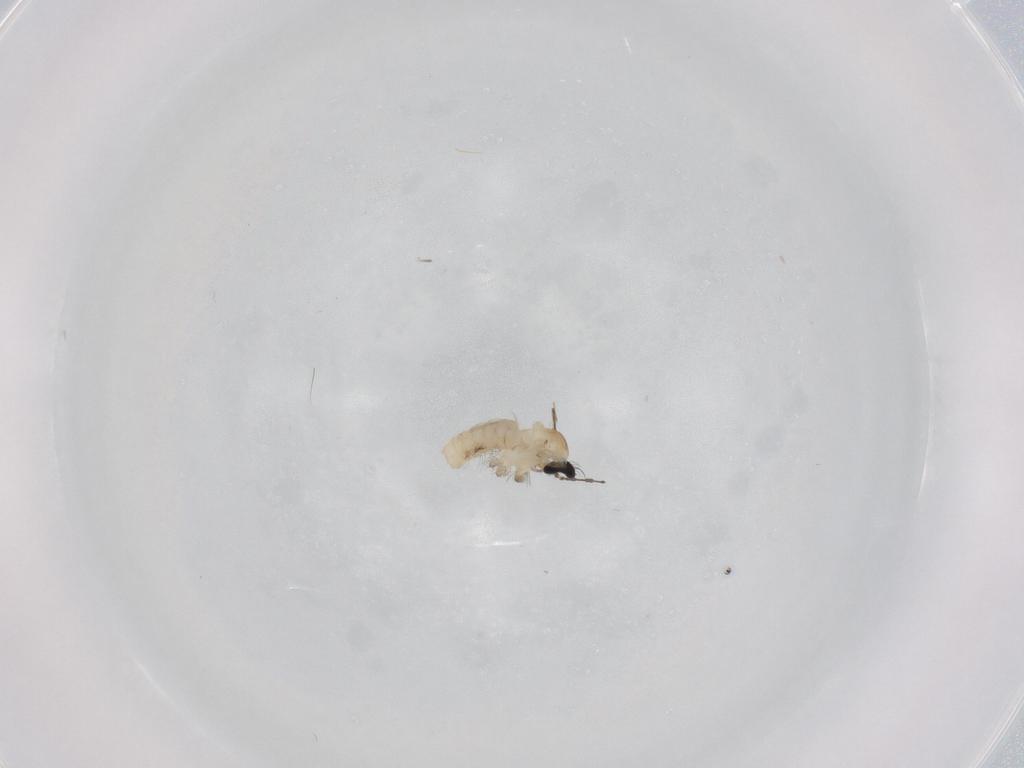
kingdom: Animalia
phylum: Arthropoda
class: Insecta
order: Diptera
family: Cecidomyiidae
